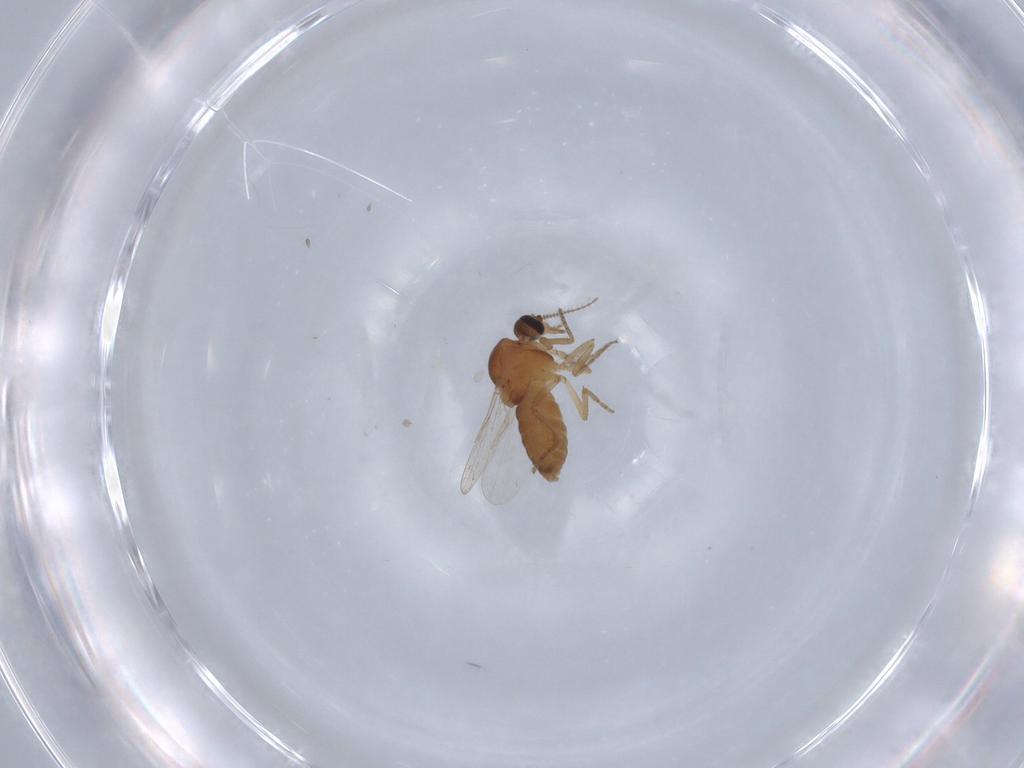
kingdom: Animalia
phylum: Arthropoda
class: Insecta
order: Diptera
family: Ceratopogonidae
